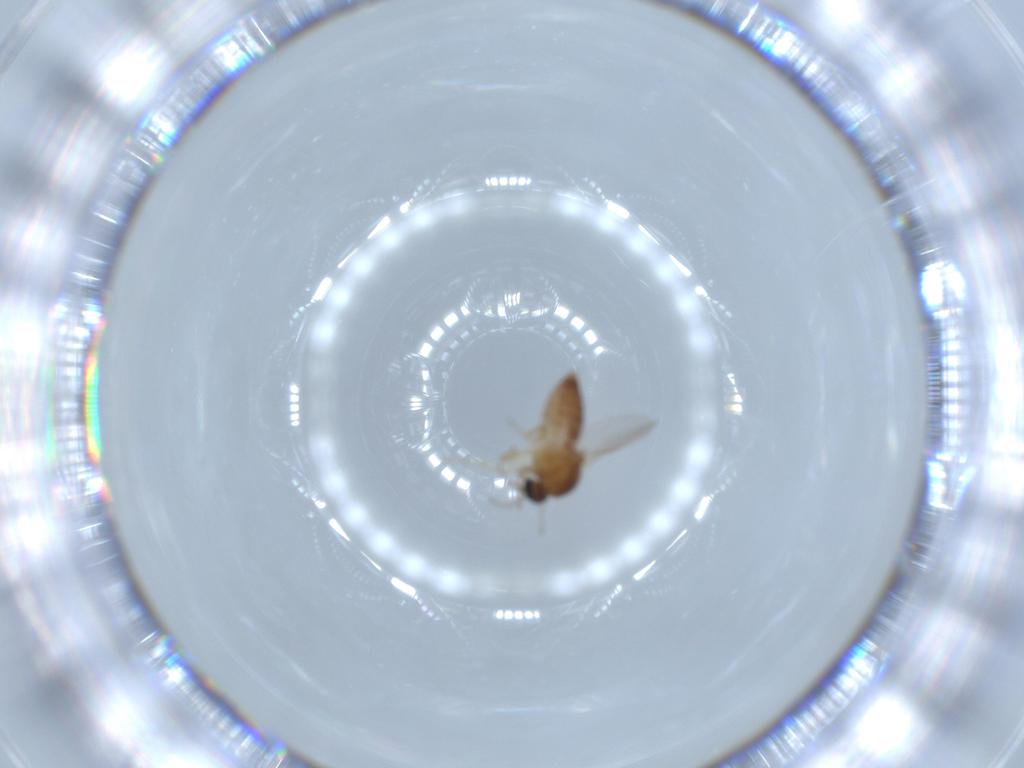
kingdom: Animalia
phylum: Arthropoda
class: Insecta
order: Diptera
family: Ceratopogonidae
